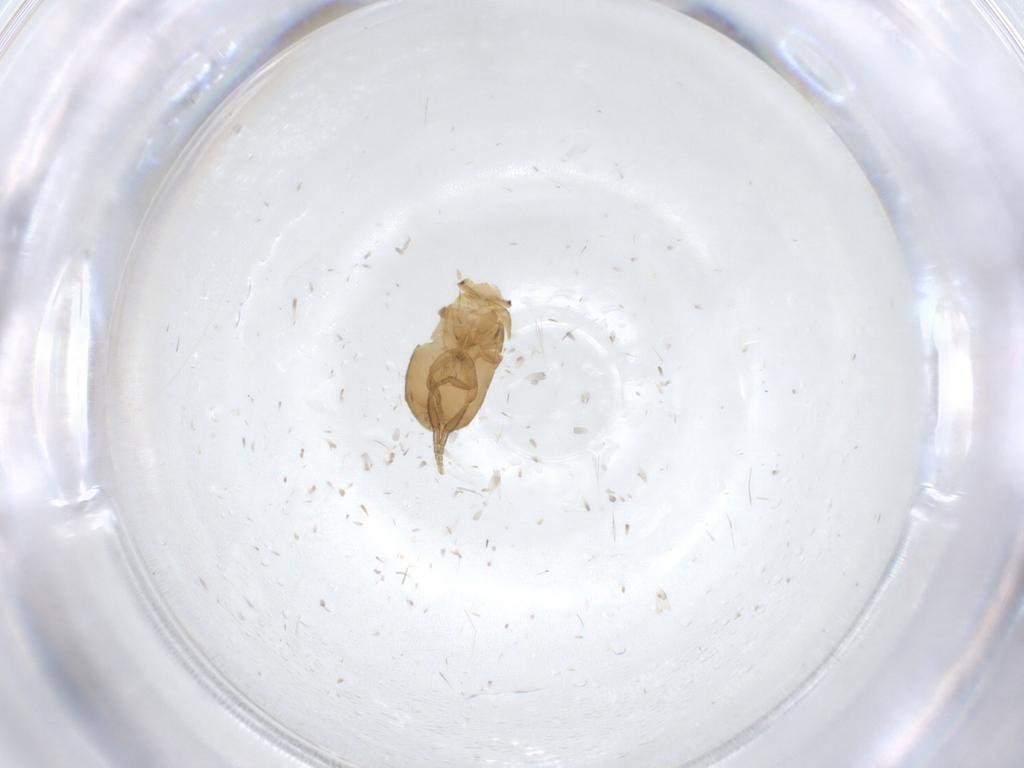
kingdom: Animalia
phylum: Arthropoda
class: Insecta
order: Diptera
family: Phoridae
